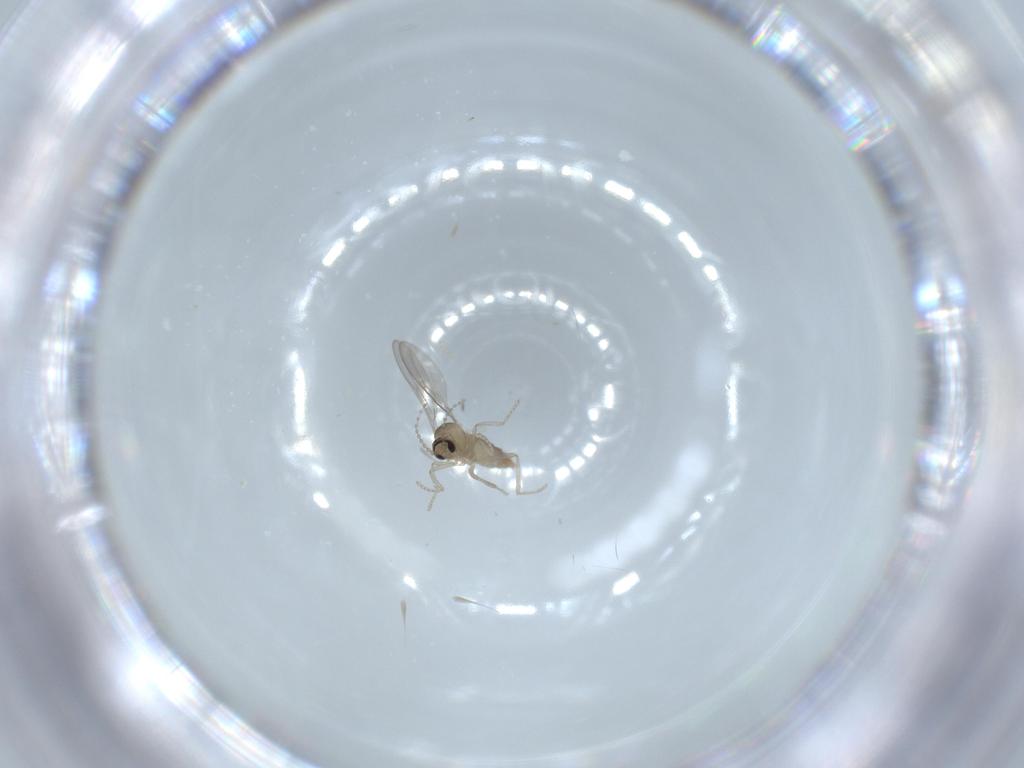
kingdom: Animalia
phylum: Arthropoda
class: Insecta
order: Diptera
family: Cecidomyiidae
